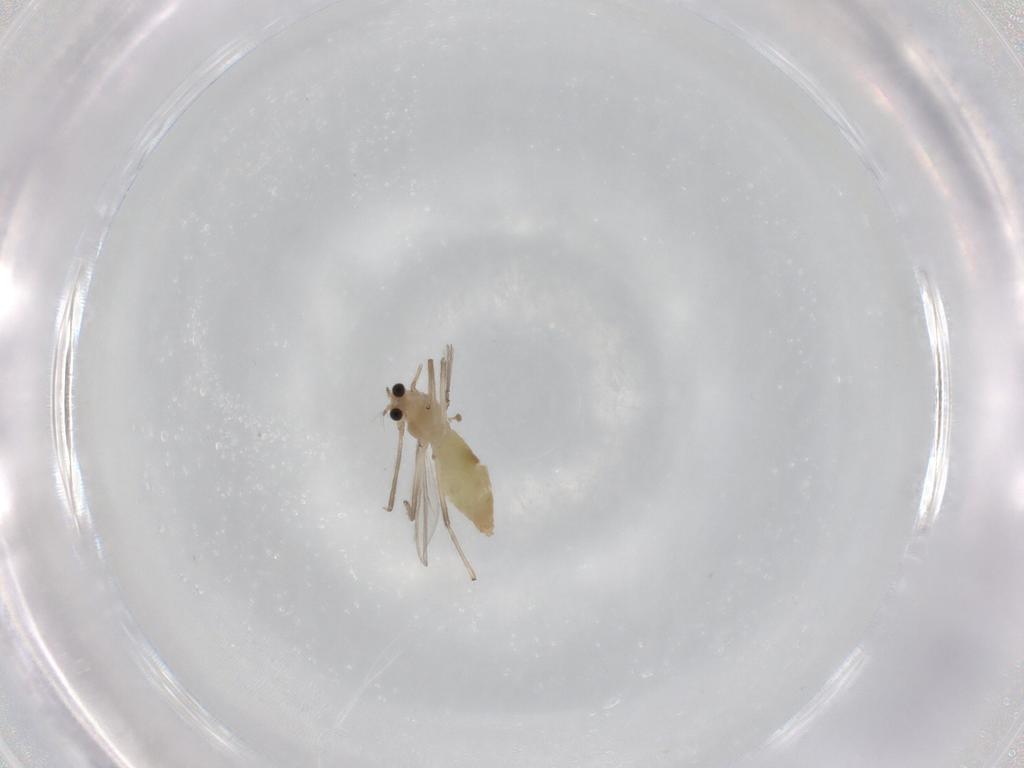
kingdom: Animalia
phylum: Arthropoda
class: Insecta
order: Diptera
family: Chironomidae
